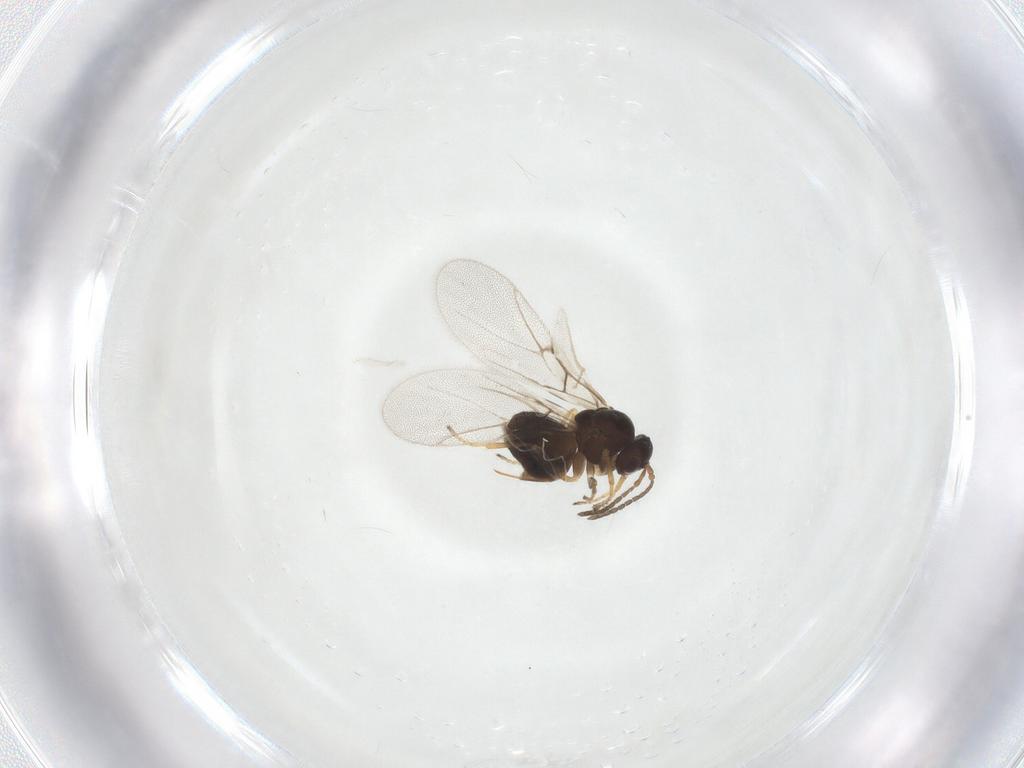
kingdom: Animalia
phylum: Arthropoda
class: Insecta
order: Hymenoptera
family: Cynipidae
